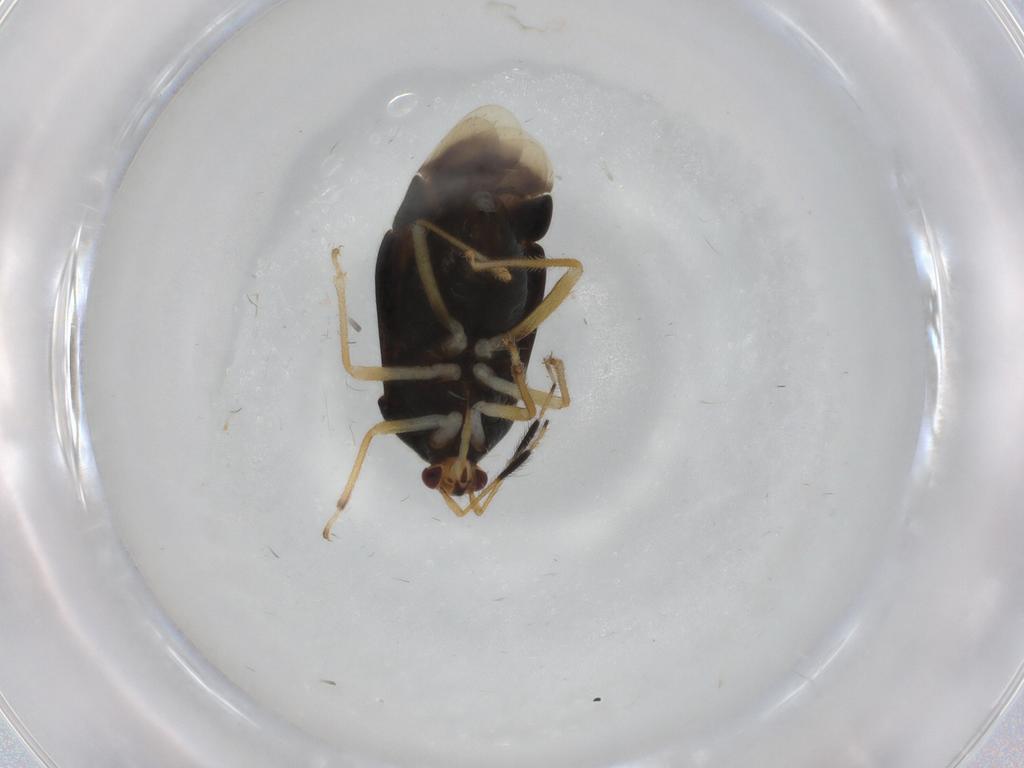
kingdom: Animalia
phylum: Arthropoda
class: Insecta
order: Hemiptera
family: Miridae
